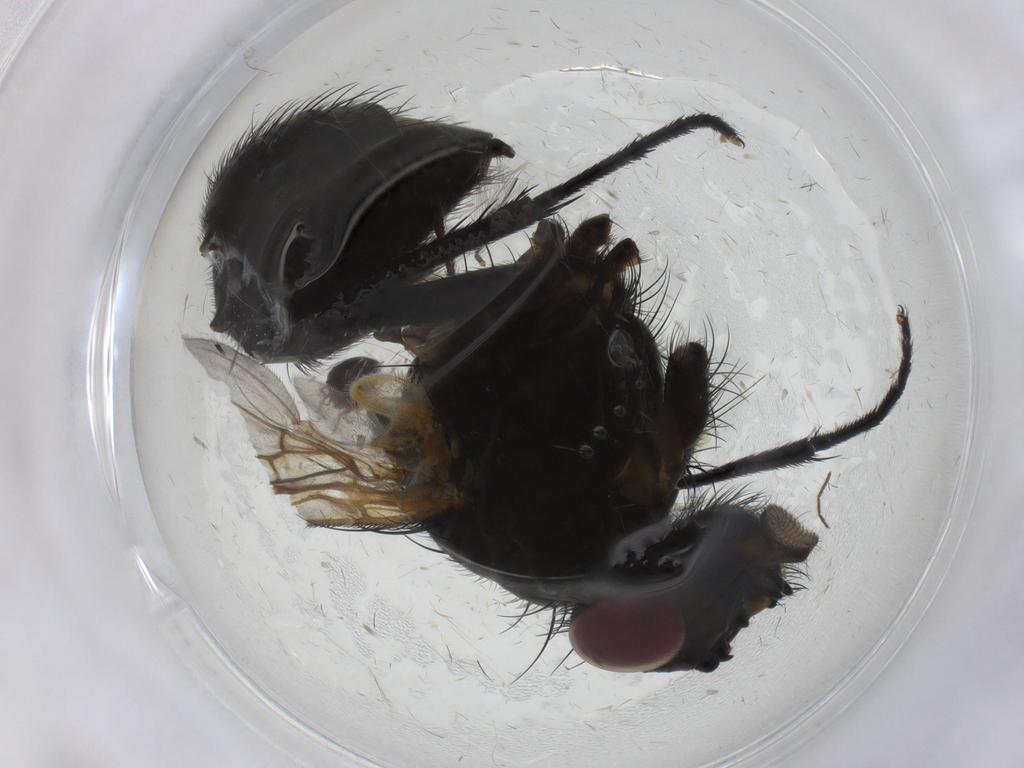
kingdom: Animalia
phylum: Arthropoda
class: Insecta
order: Diptera
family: Muscidae
